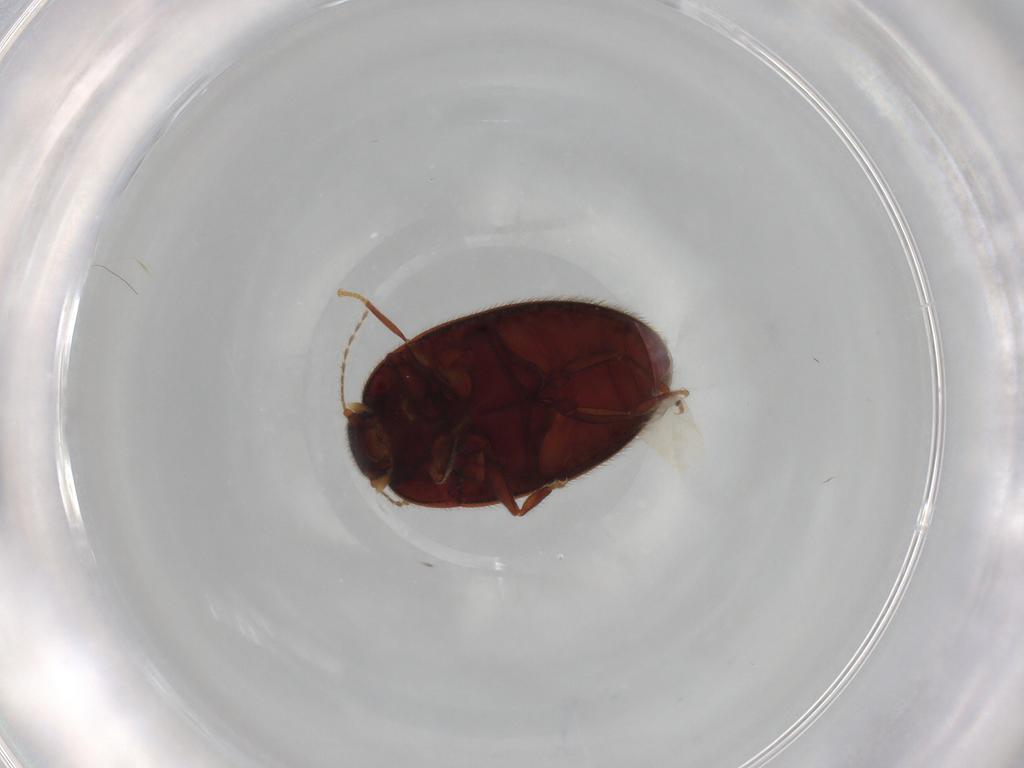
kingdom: Animalia
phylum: Arthropoda
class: Insecta
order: Coleoptera
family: Limnichidae
